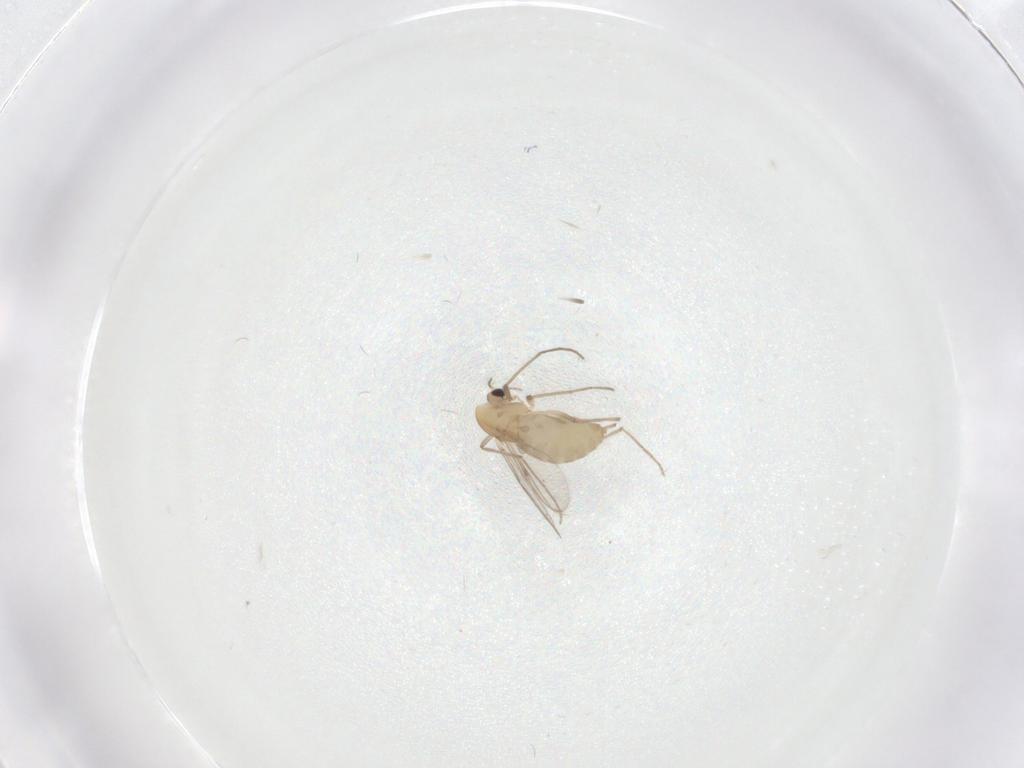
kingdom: Animalia
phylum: Arthropoda
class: Insecta
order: Diptera
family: Chironomidae
